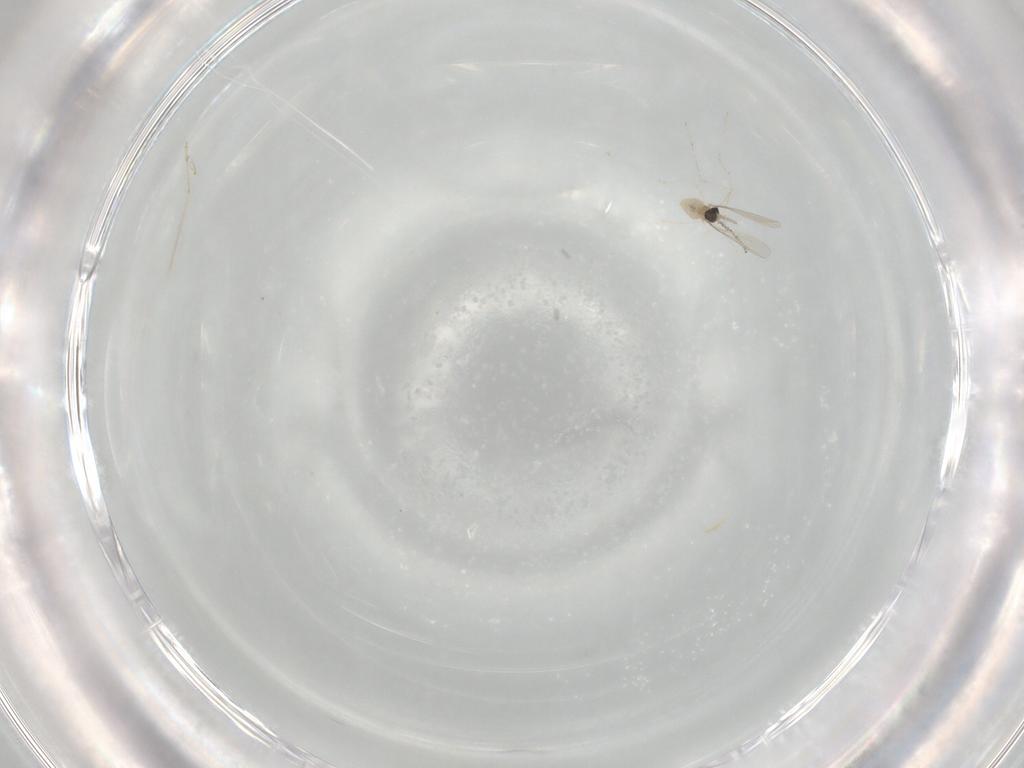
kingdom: Animalia
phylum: Arthropoda
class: Insecta
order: Diptera
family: Cecidomyiidae
